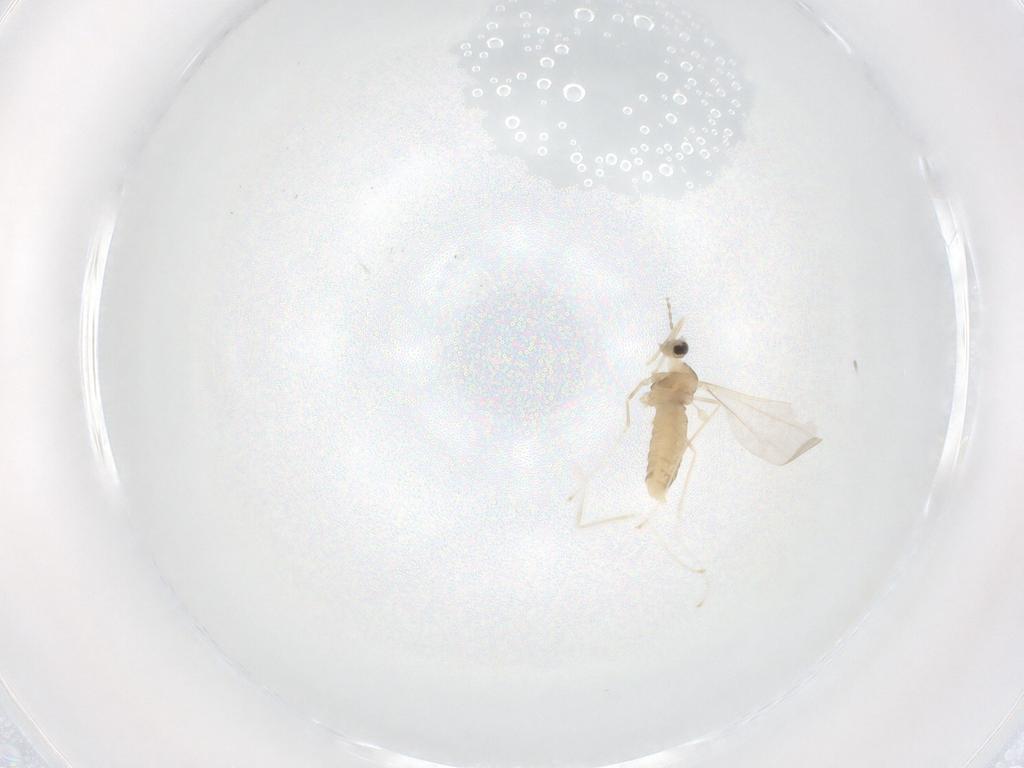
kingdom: Animalia
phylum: Arthropoda
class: Insecta
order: Diptera
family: Cecidomyiidae
